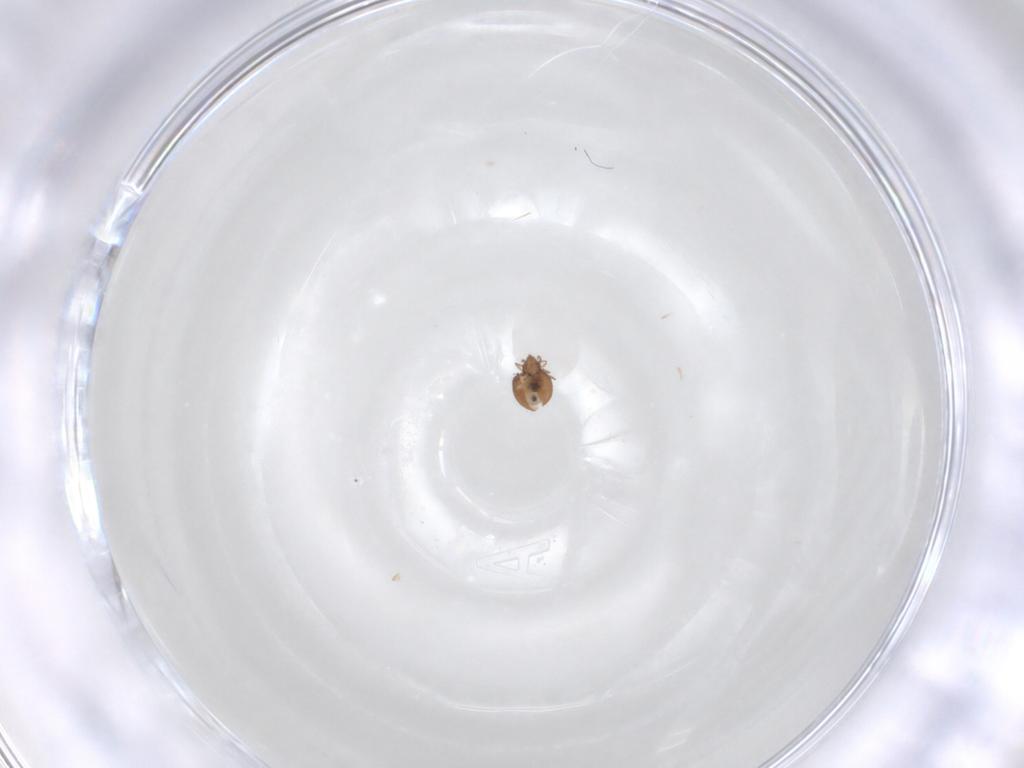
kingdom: Animalia
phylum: Arthropoda
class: Arachnida
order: Sarcoptiformes
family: Oribatulidae
